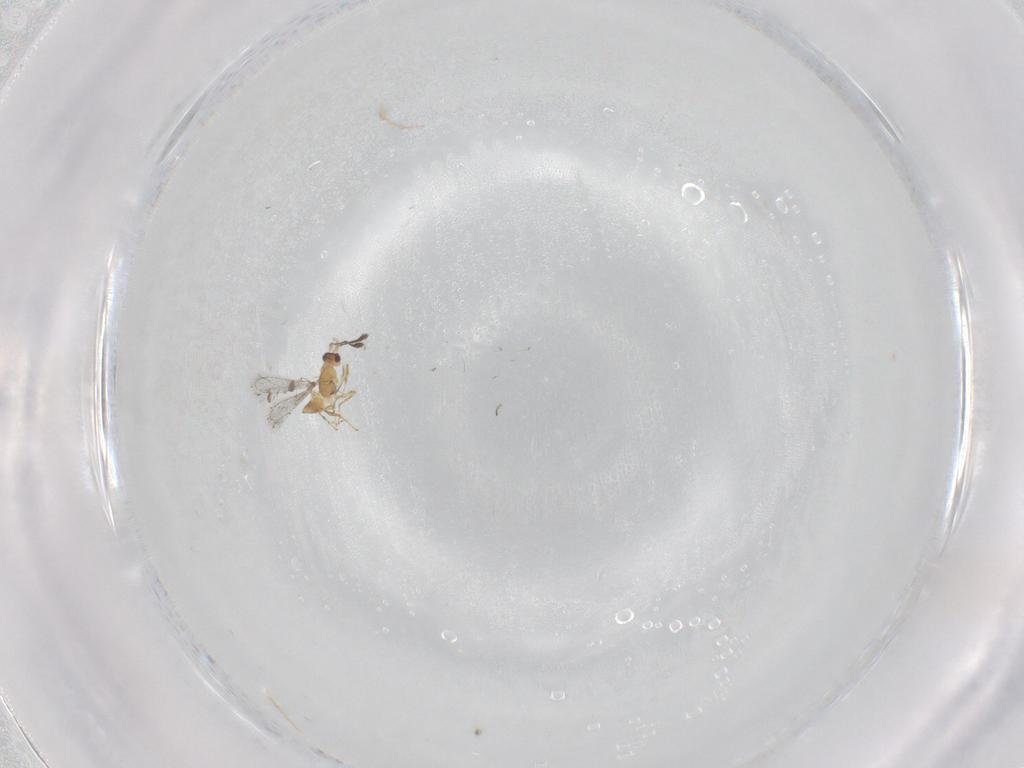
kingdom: Animalia
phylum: Arthropoda
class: Insecta
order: Hymenoptera
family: Mymaridae
